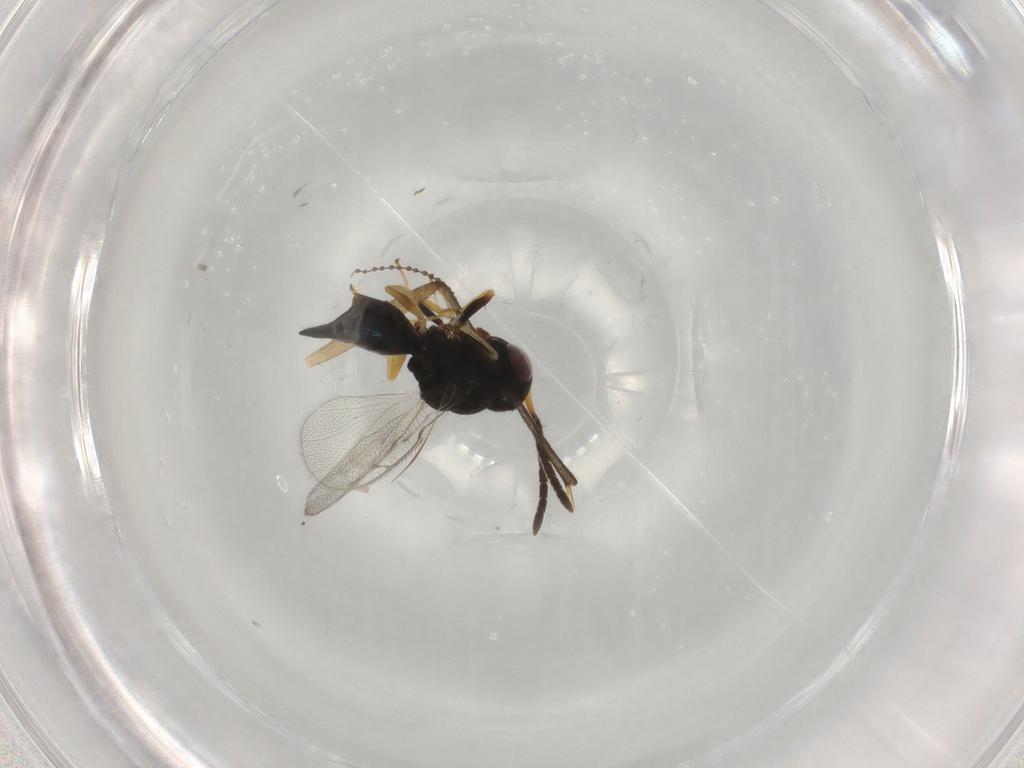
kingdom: Animalia
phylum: Arthropoda
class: Insecta
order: Hymenoptera
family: Pteromalidae
